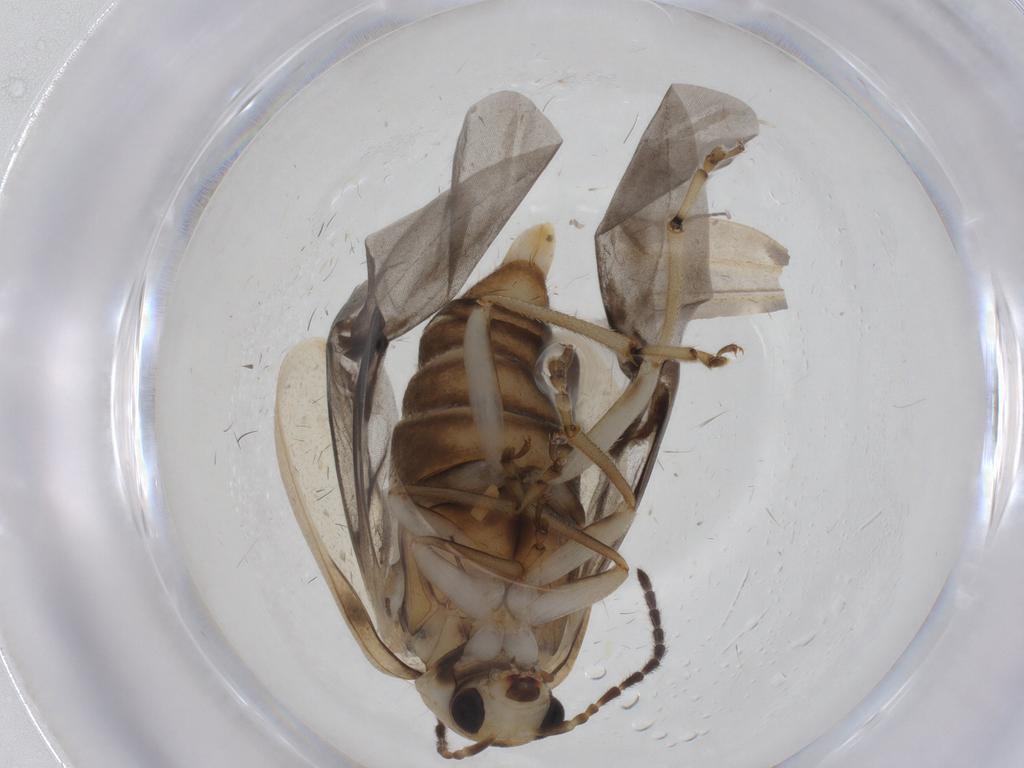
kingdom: Animalia
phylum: Arthropoda
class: Insecta
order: Coleoptera
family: Chrysomelidae
